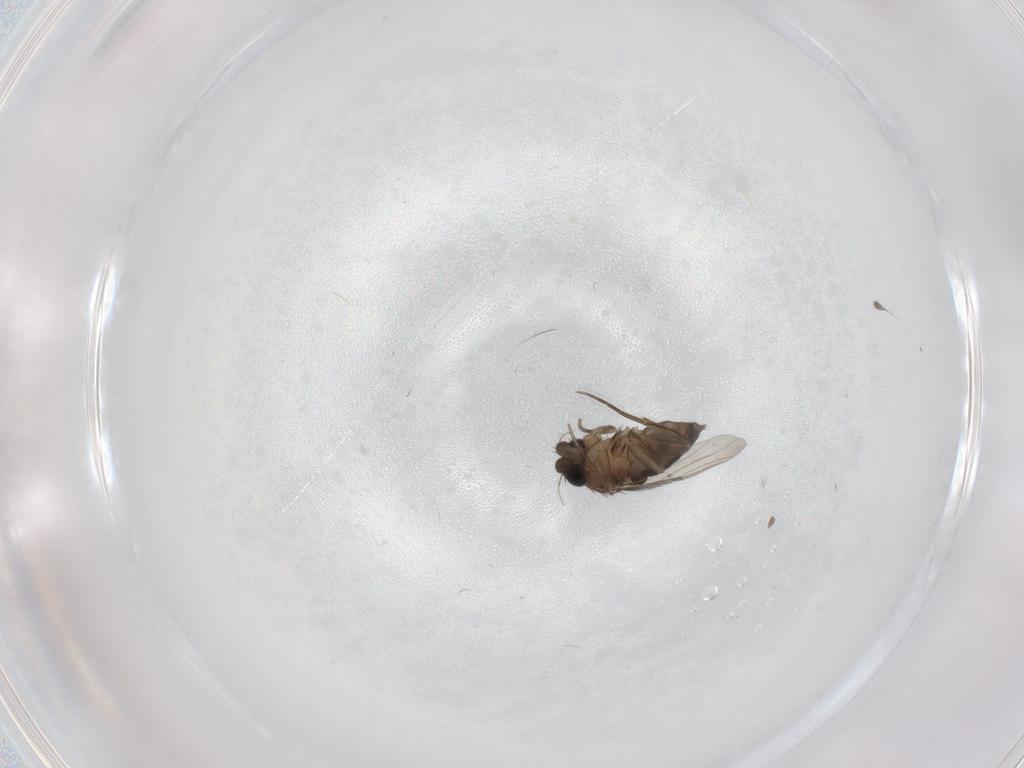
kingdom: Animalia
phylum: Arthropoda
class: Insecta
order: Diptera
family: Phoridae
